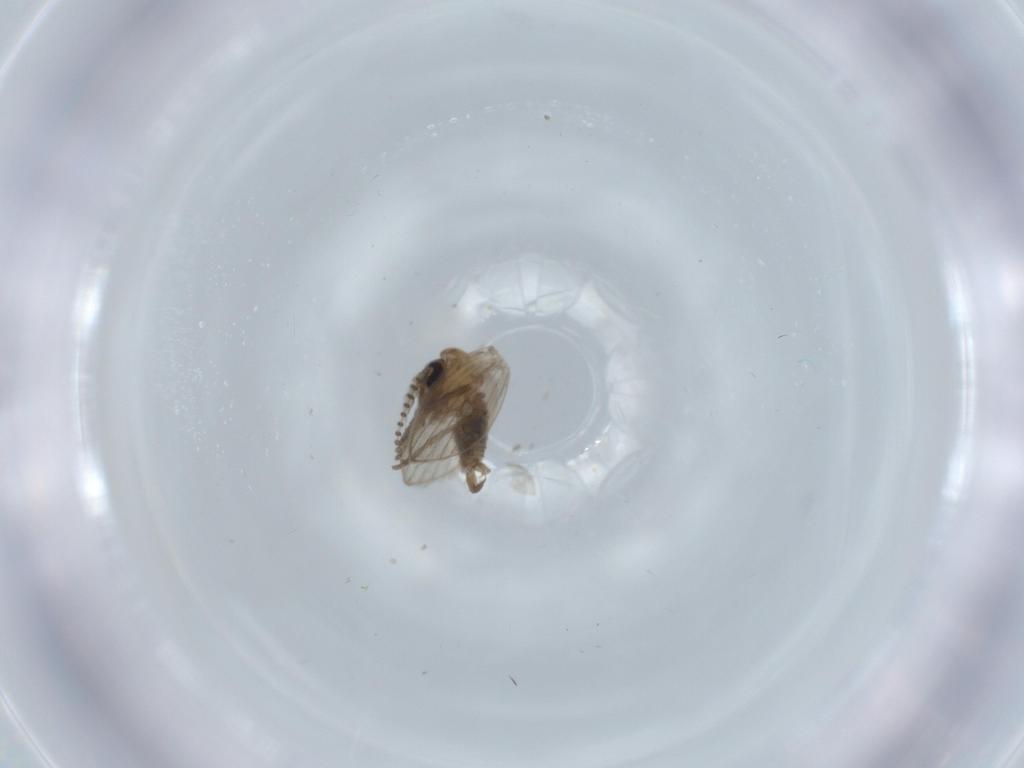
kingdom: Animalia
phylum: Arthropoda
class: Insecta
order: Diptera
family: Psychodidae
